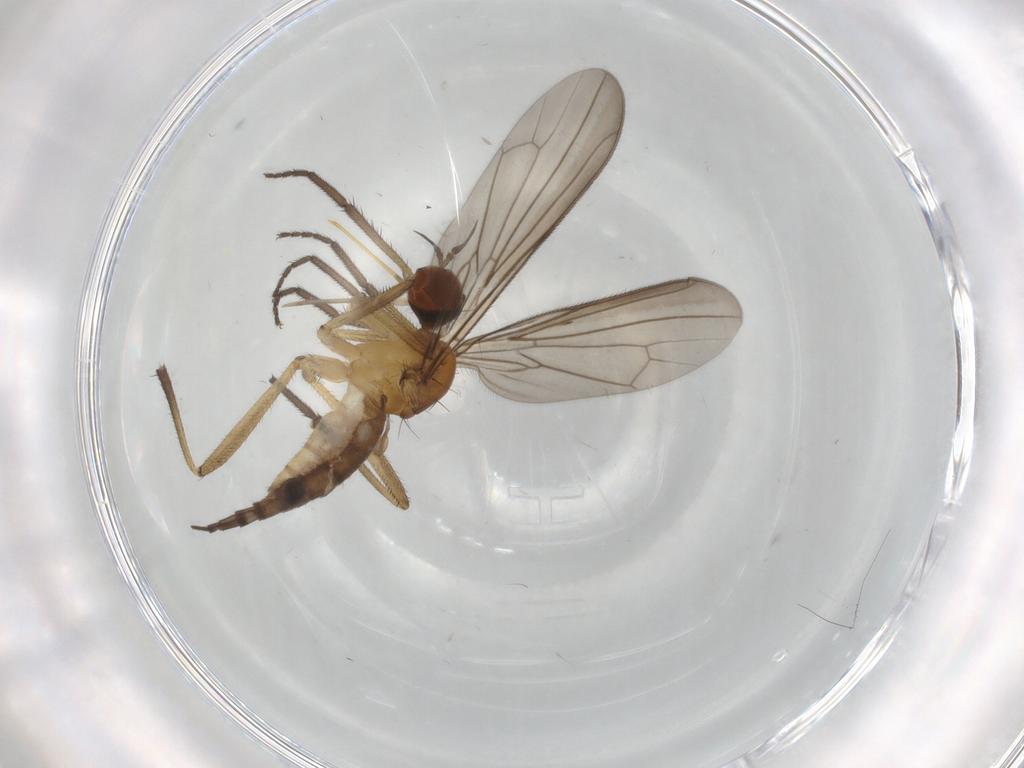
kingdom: Animalia
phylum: Arthropoda
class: Insecta
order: Diptera
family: Empididae
